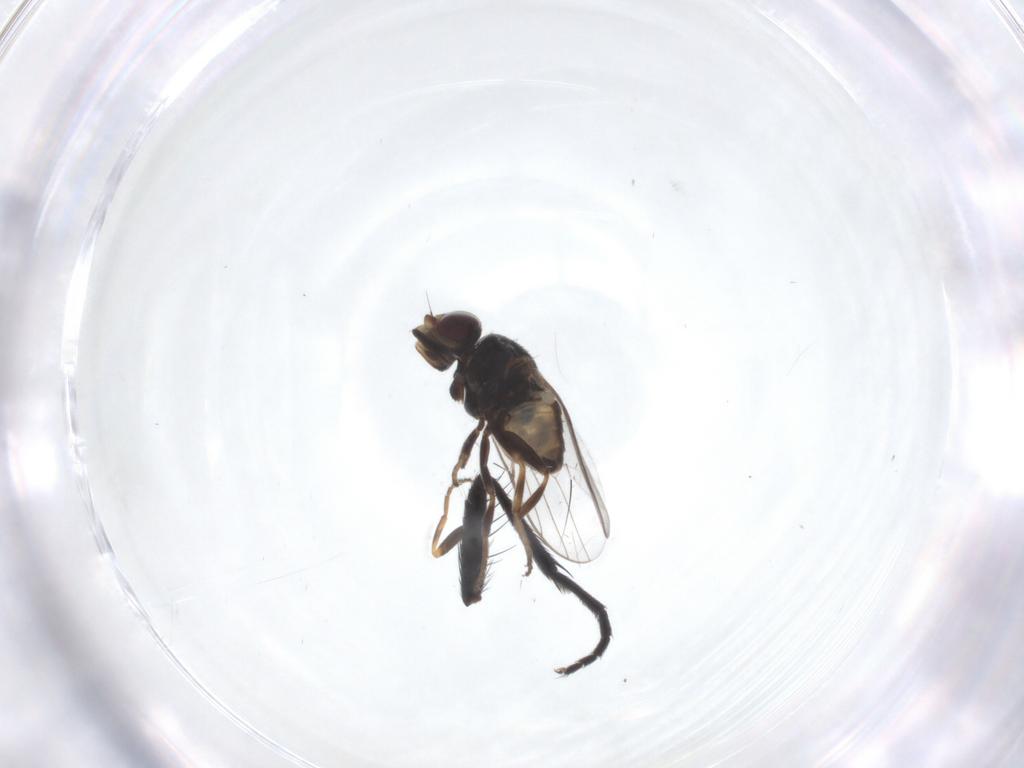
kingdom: Animalia
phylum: Arthropoda
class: Insecta
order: Diptera
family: Chloropidae
